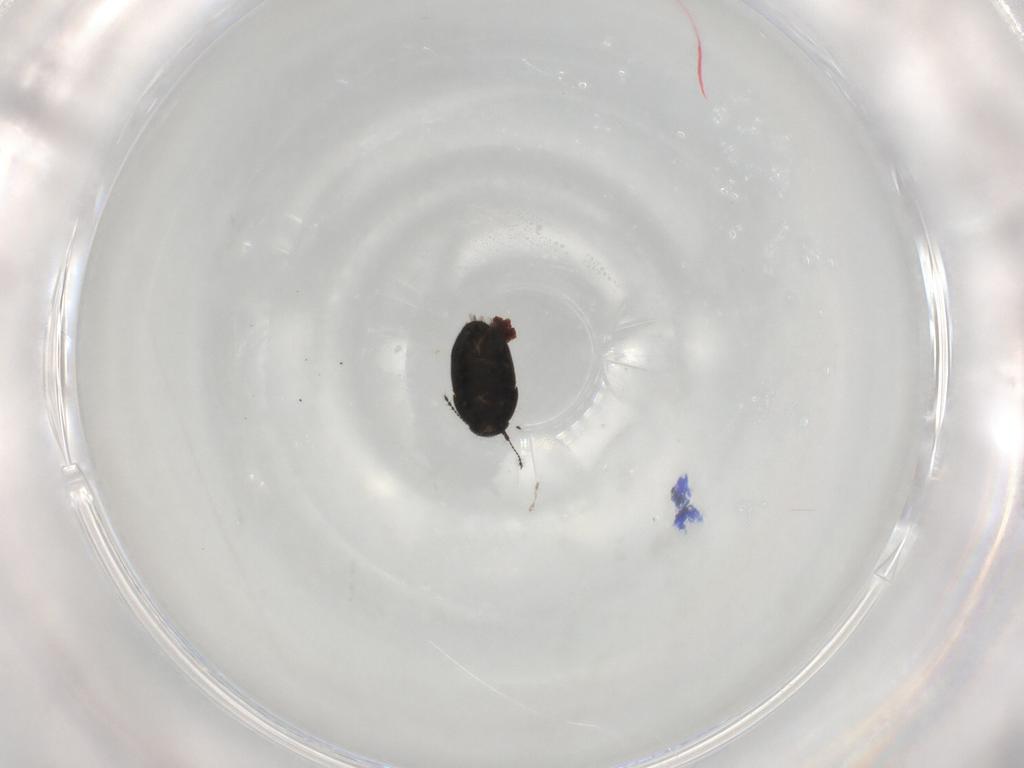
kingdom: Animalia
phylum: Arthropoda
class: Insecta
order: Coleoptera
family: Ptiliidae
